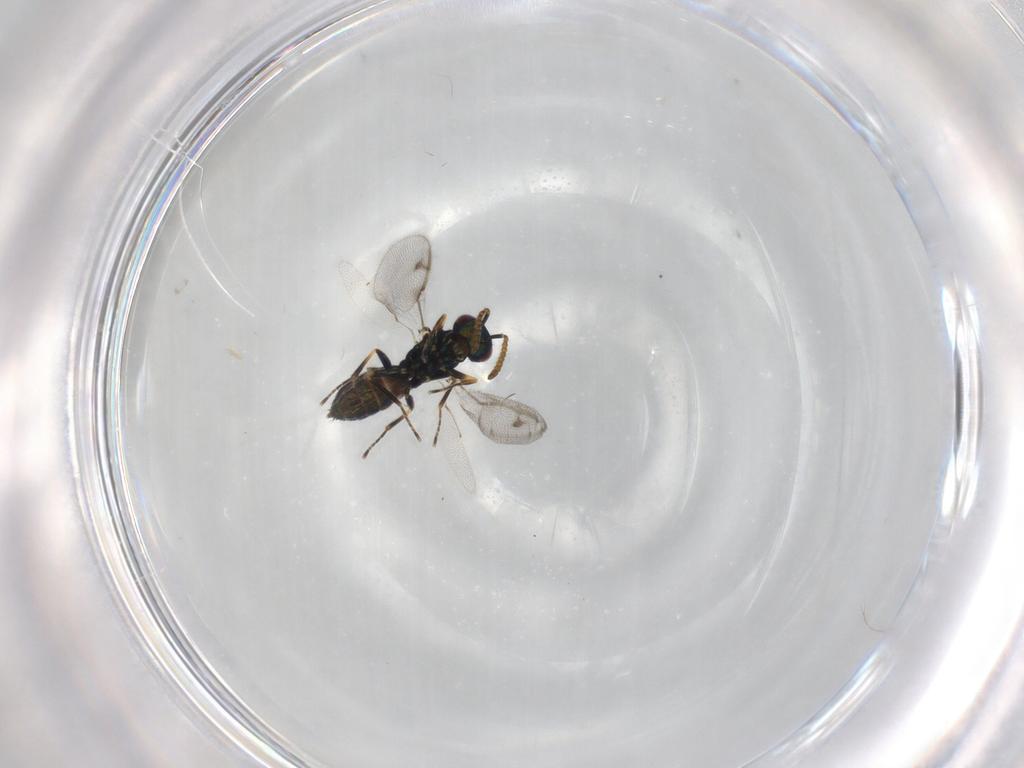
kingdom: Animalia
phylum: Arthropoda
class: Insecta
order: Hymenoptera
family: Pirenidae
